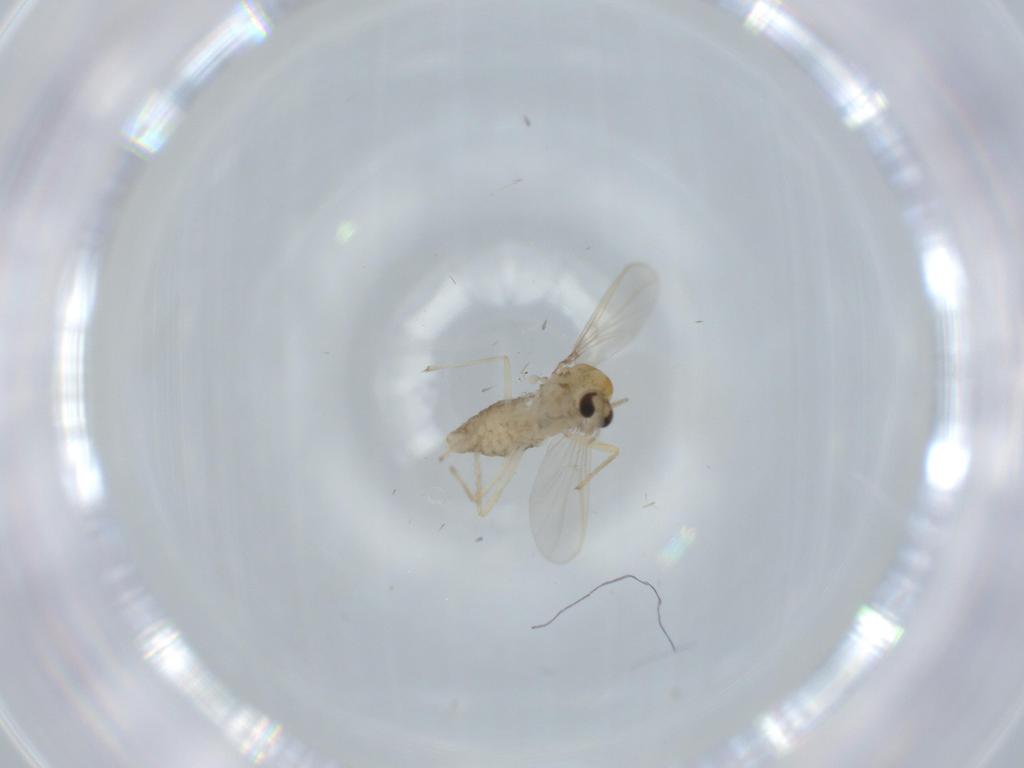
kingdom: Animalia
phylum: Arthropoda
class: Insecta
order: Diptera
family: Chironomidae
